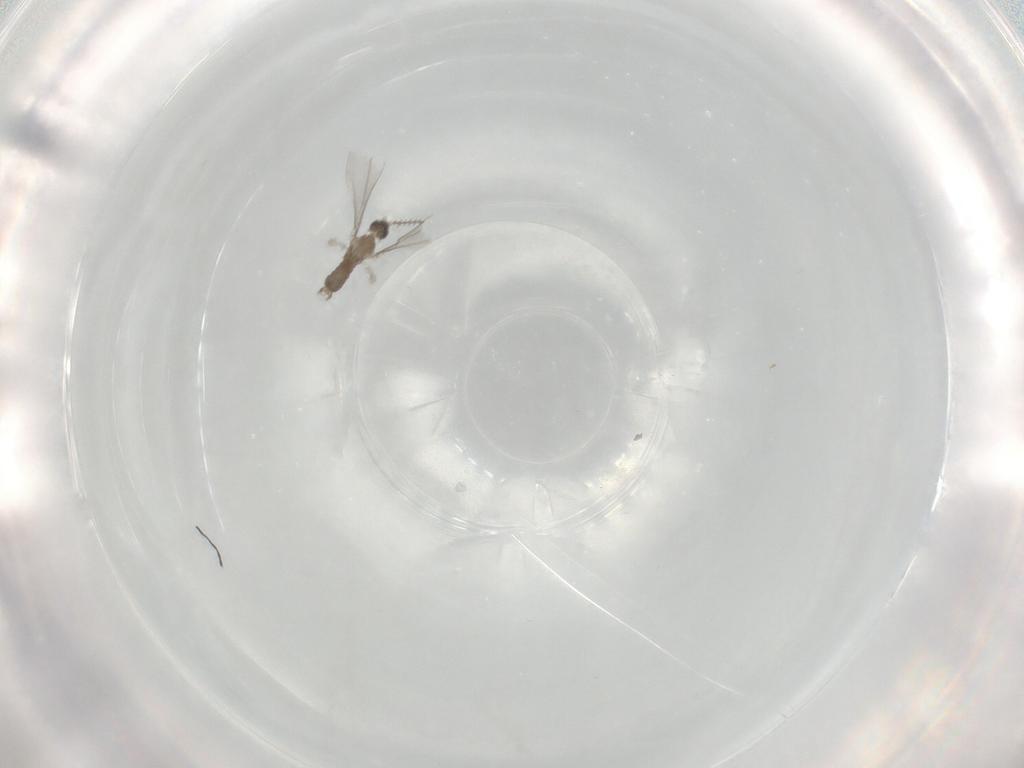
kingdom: Animalia
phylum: Arthropoda
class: Insecta
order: Diptera
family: Cecidomyiidae
